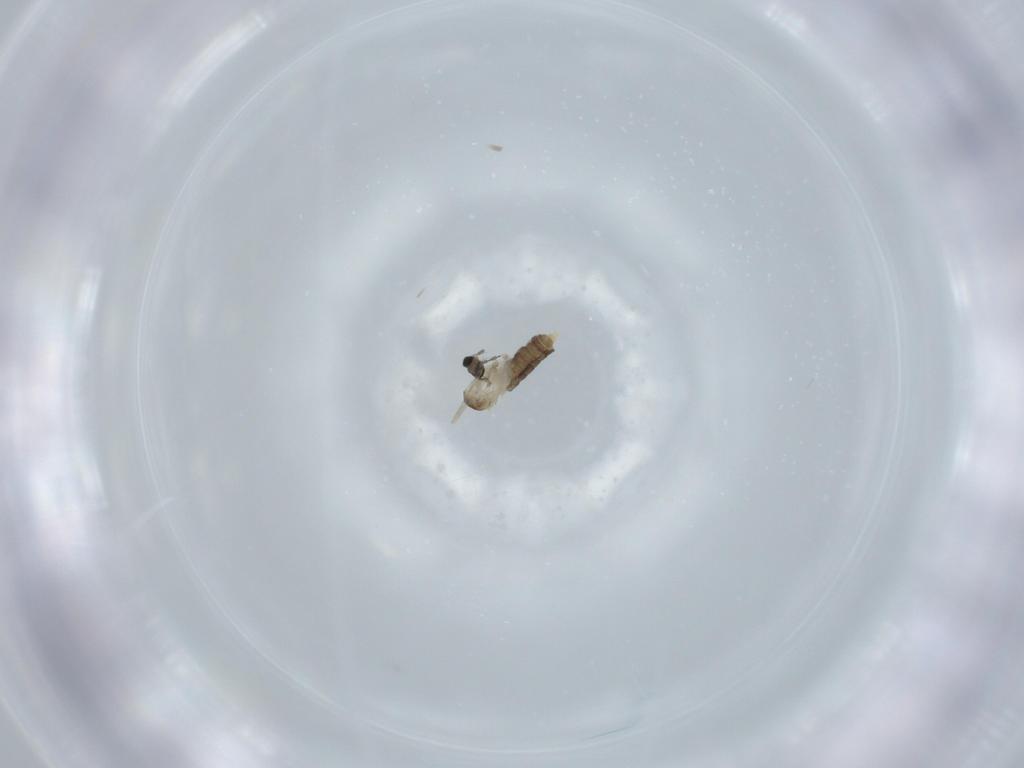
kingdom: Animalia
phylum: Arthropoda
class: Insecta
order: Diptera
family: Cecidomyiidae
